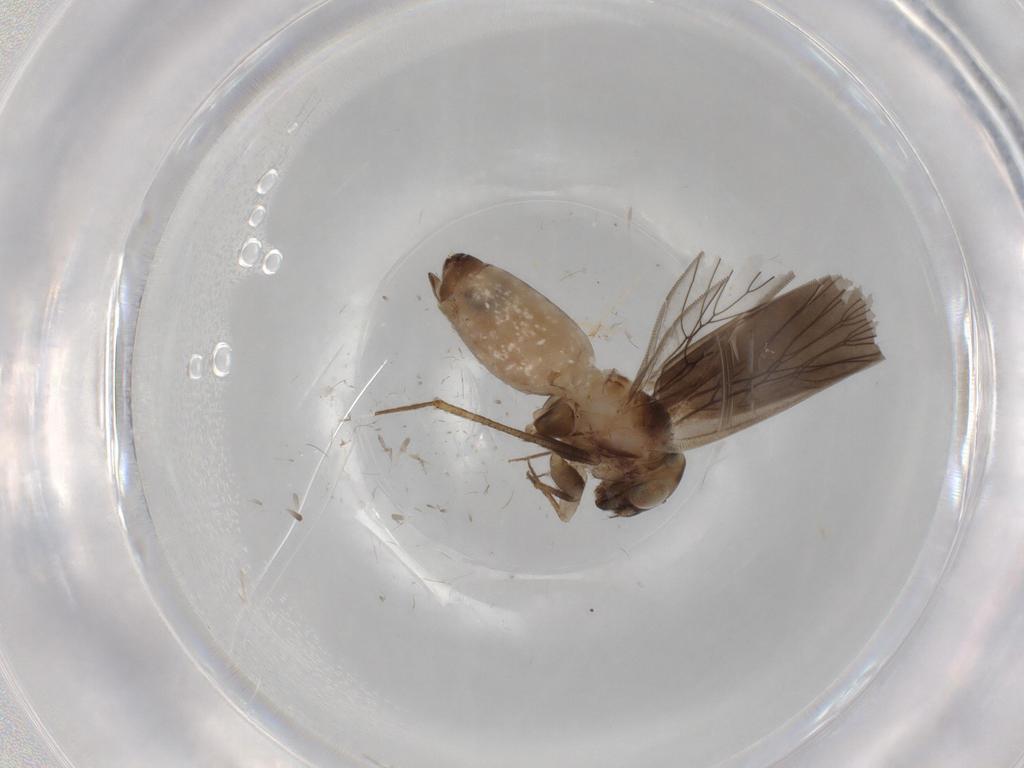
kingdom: Animalia
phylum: Arthropoda
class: Insecta
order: Psocodea
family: Lepidopsocidae
